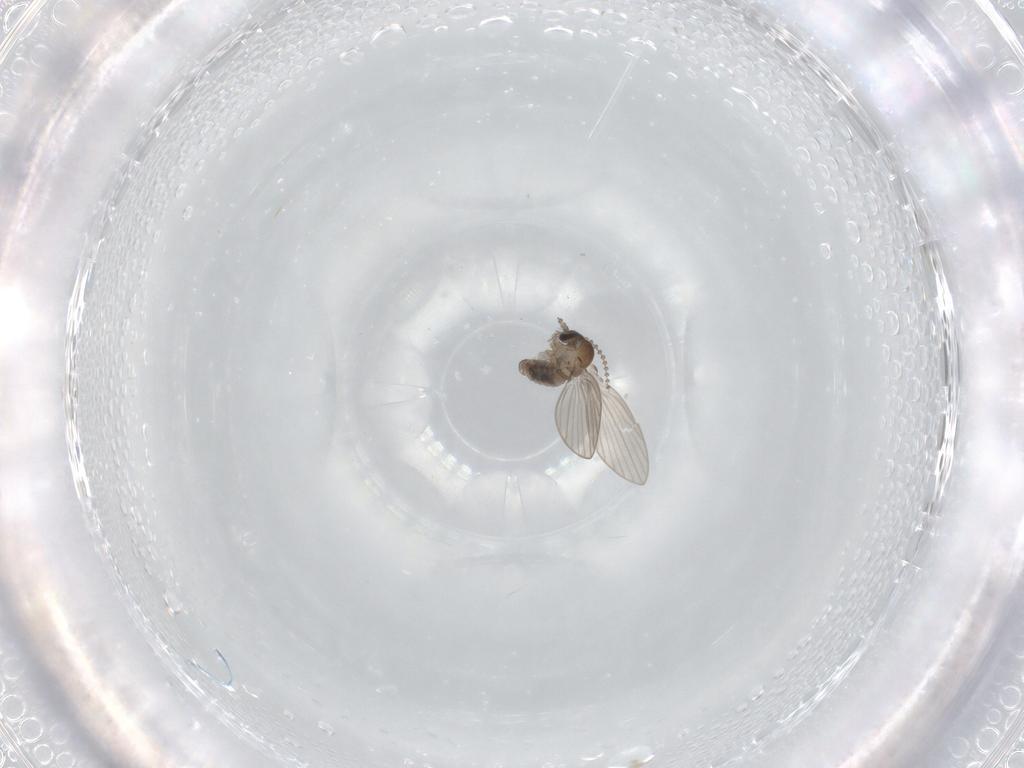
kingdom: Animalia
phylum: Arthropoda
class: Insecta
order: Diptera
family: Psychodidae
